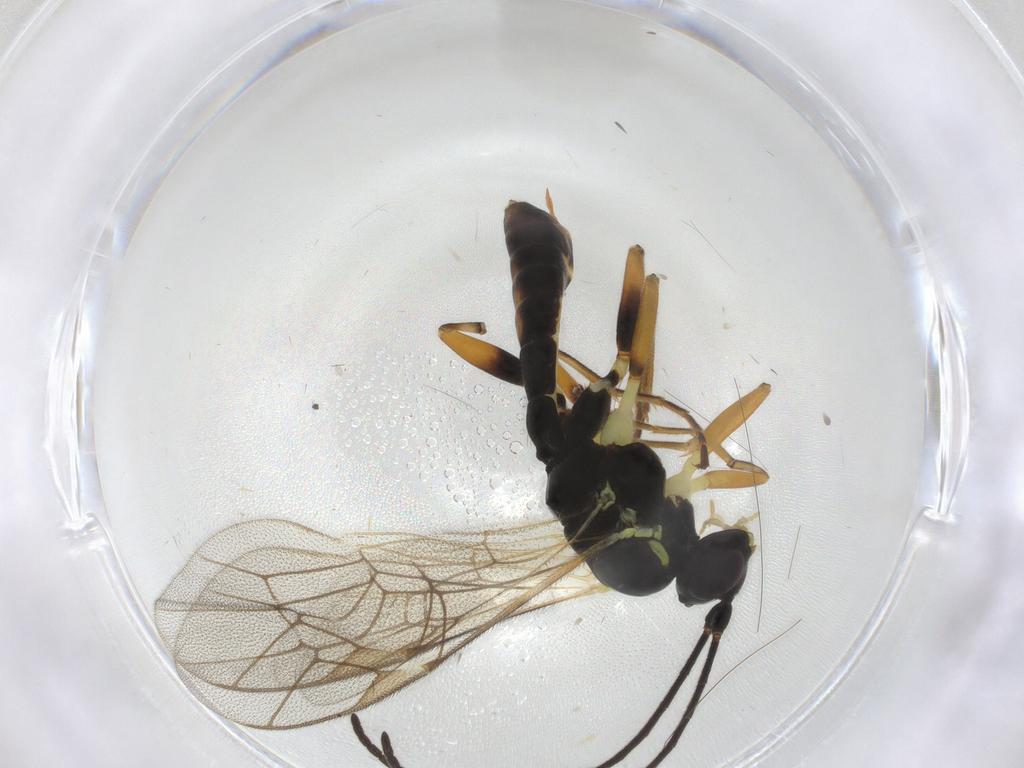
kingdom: Animalia
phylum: Arthropoda
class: Insecta
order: Hymenoptera
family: Ichneumonidae
